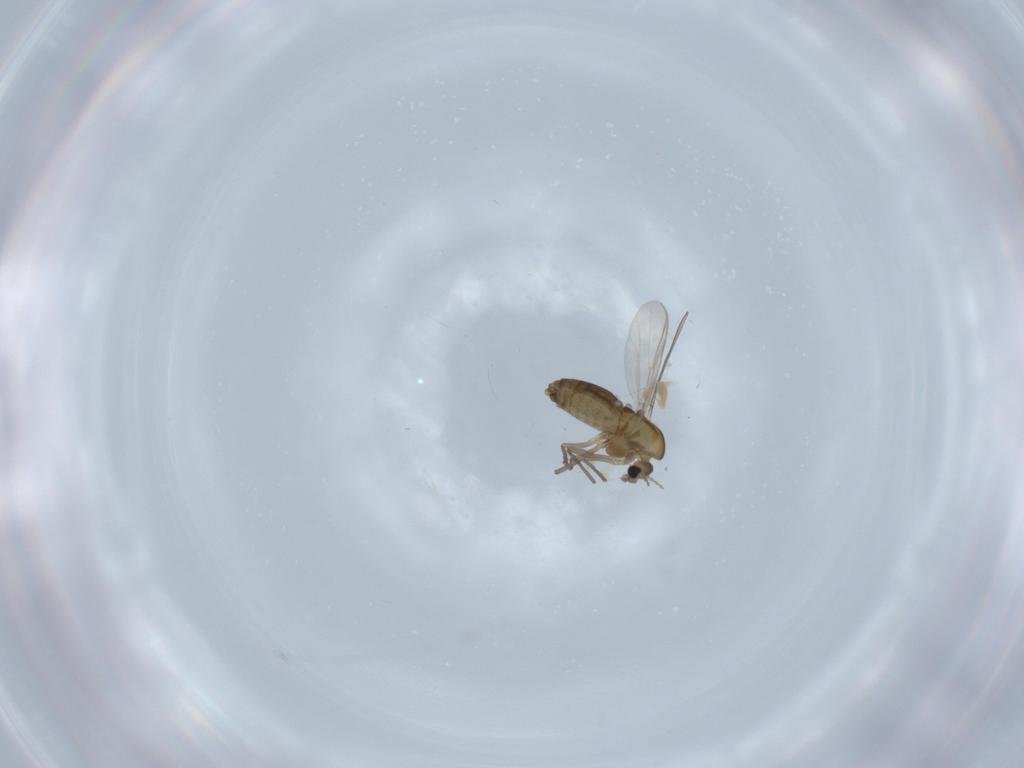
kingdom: Animalia
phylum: Arthropoda
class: Insecta
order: Diptera
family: Chironomidae
